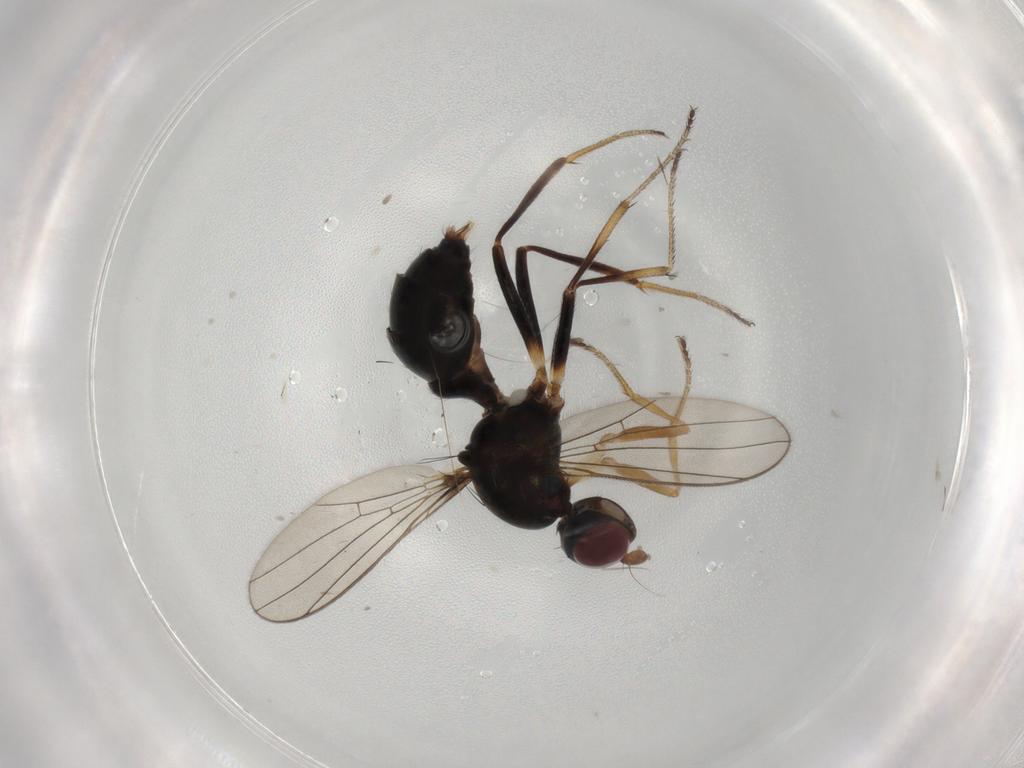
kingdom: Animalia
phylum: Arthropoda
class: Insecta
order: Diptera
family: Sepsidae
